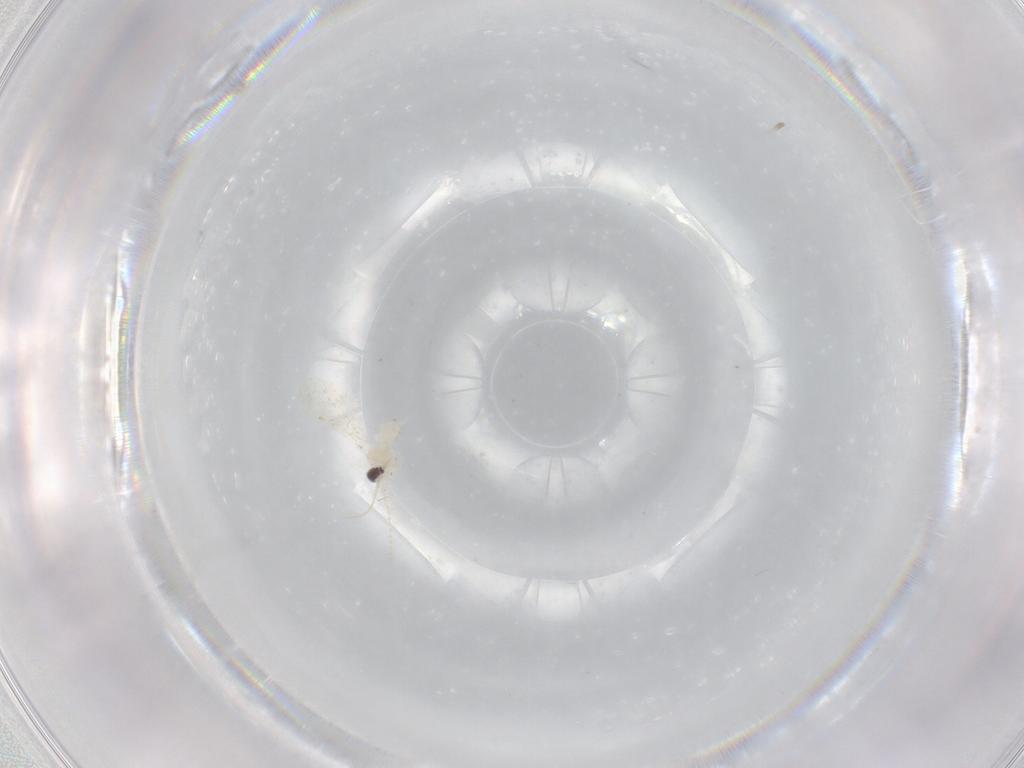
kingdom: Animalia
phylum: Arthropoda
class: Insecta
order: Diptera
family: Cecidomyiidae
